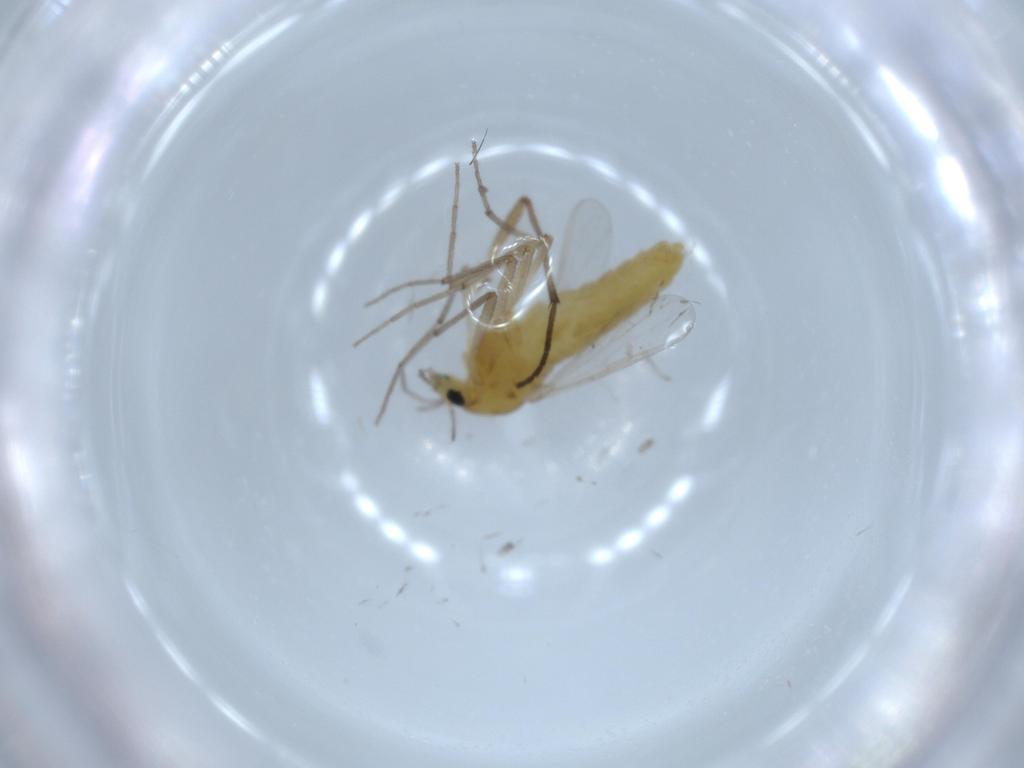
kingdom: Animalia
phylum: Arthropoda
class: Insecta
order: Diptera
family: Chironomidae
